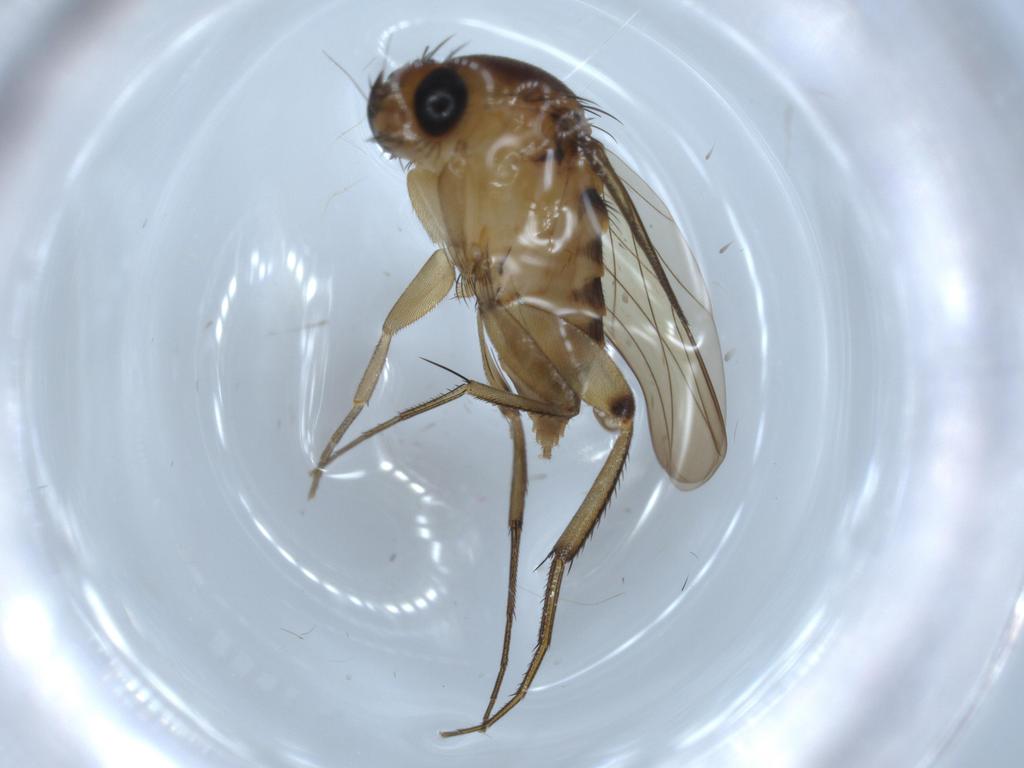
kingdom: Animalia
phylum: Arthropoda
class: Insecta
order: Diptera
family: Phoridae
